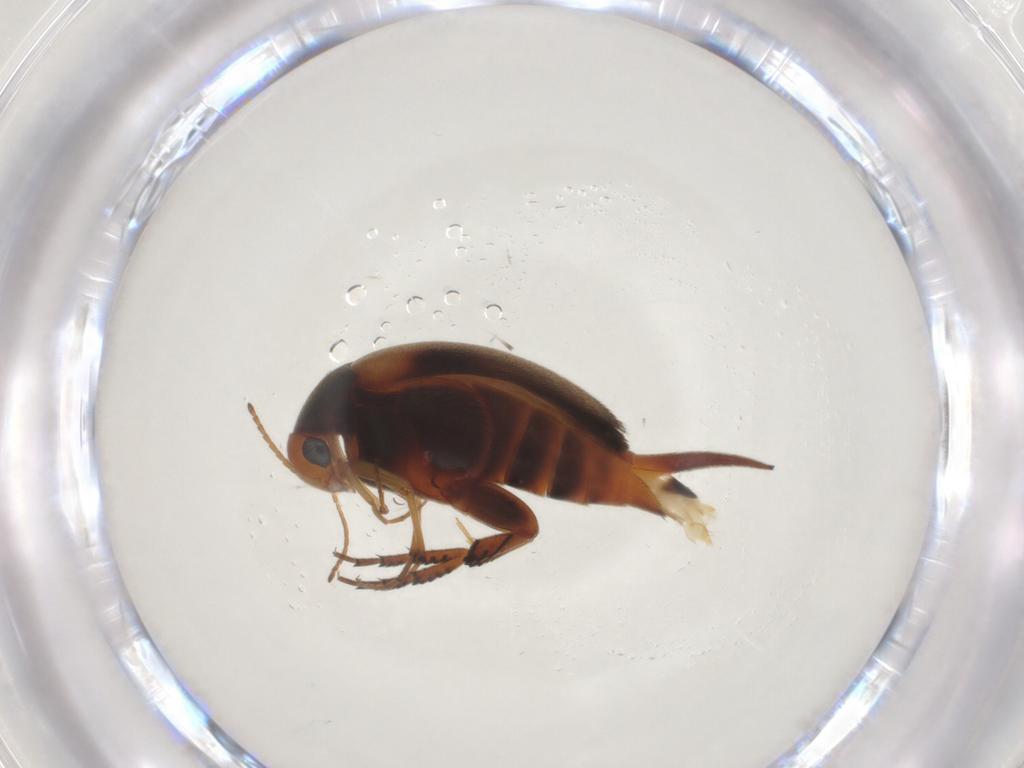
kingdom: Animalia
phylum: Arthropoda
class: Insecta
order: Coleoptera
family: Mordellidae
